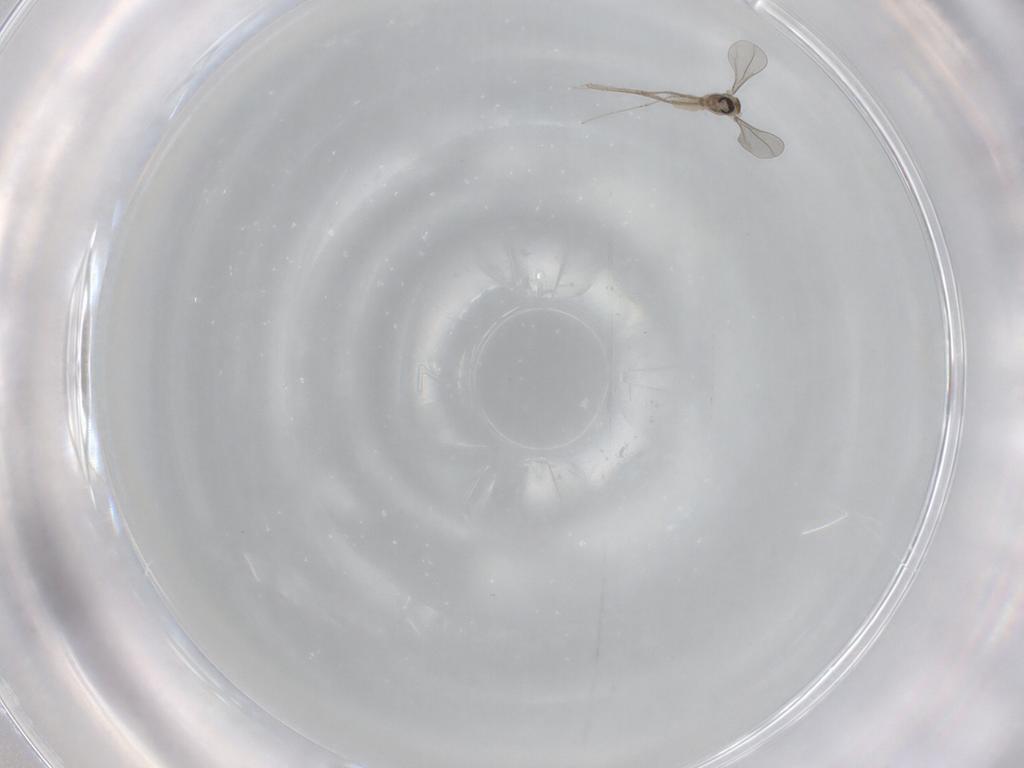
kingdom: Animalia
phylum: Arthropoda
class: Insecta
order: Diptera
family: Cecidomyiidae
